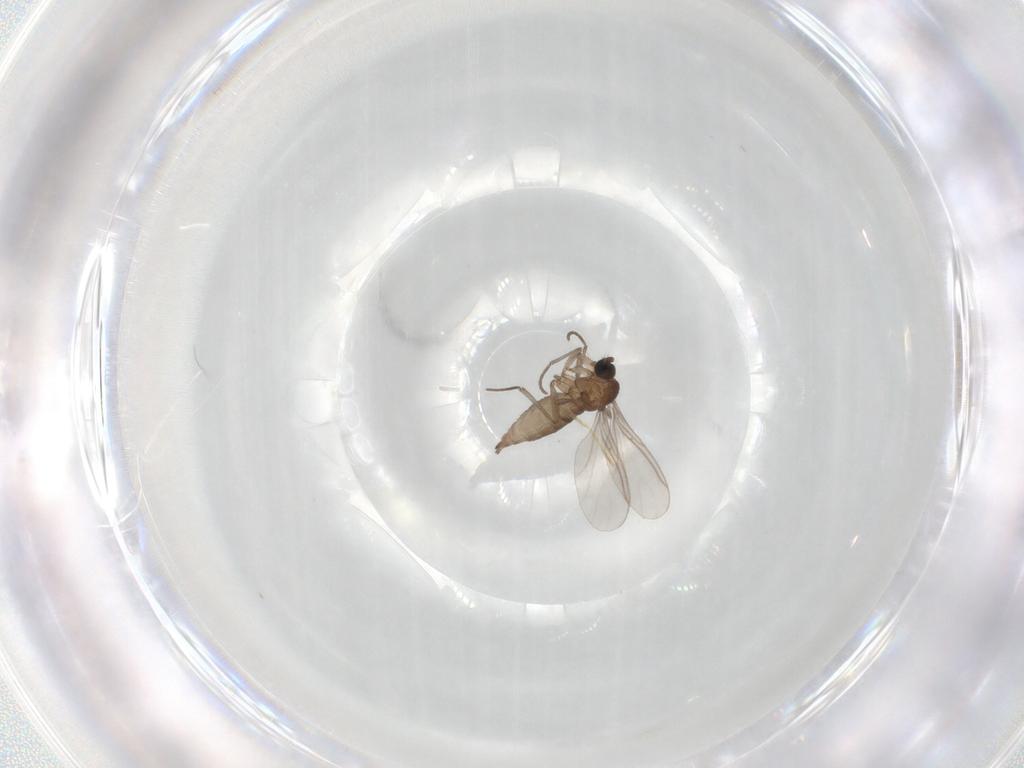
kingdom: Animalia
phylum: Arthropoda
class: Insecta
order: Diptera
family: Sciaridae
